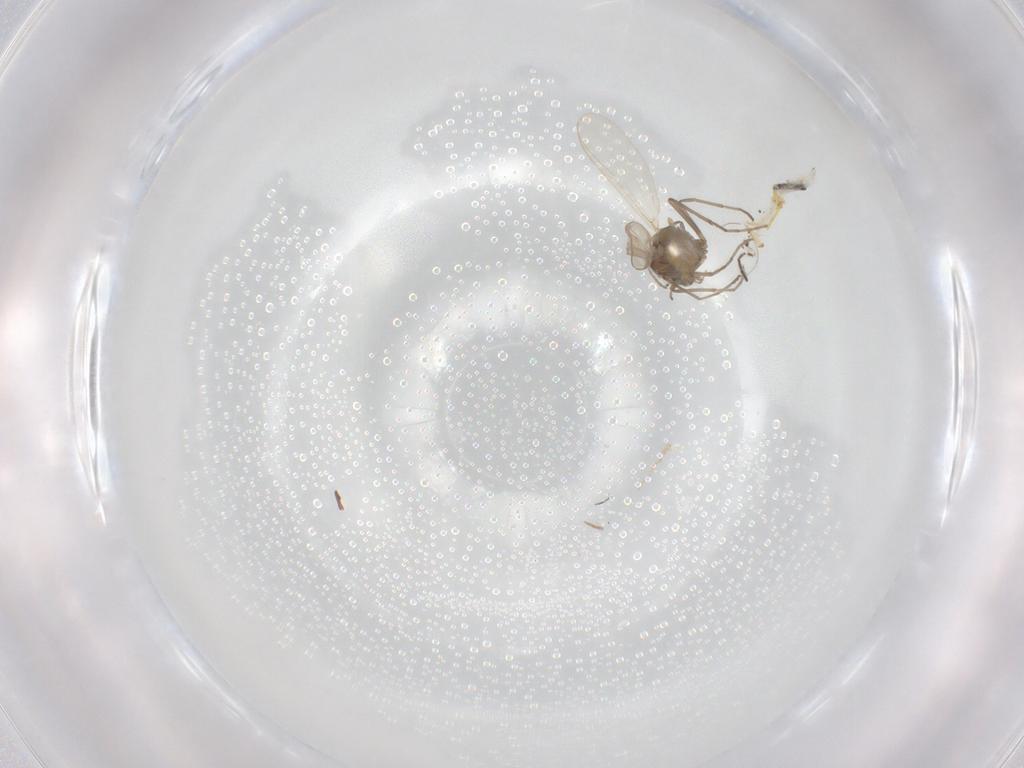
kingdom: Animalia
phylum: Arthropoda
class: Insecta
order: Diptera
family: Chironomidae
